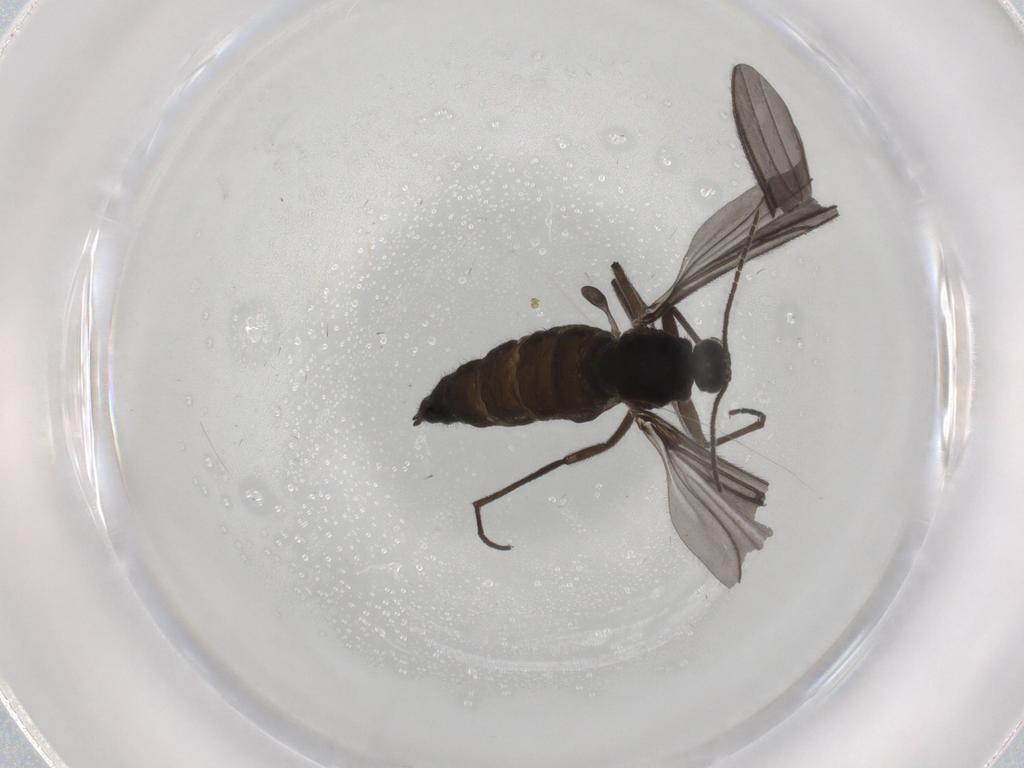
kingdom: Animalia
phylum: Arthropoda
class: Insecta
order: Diptera
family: Sciaridae
